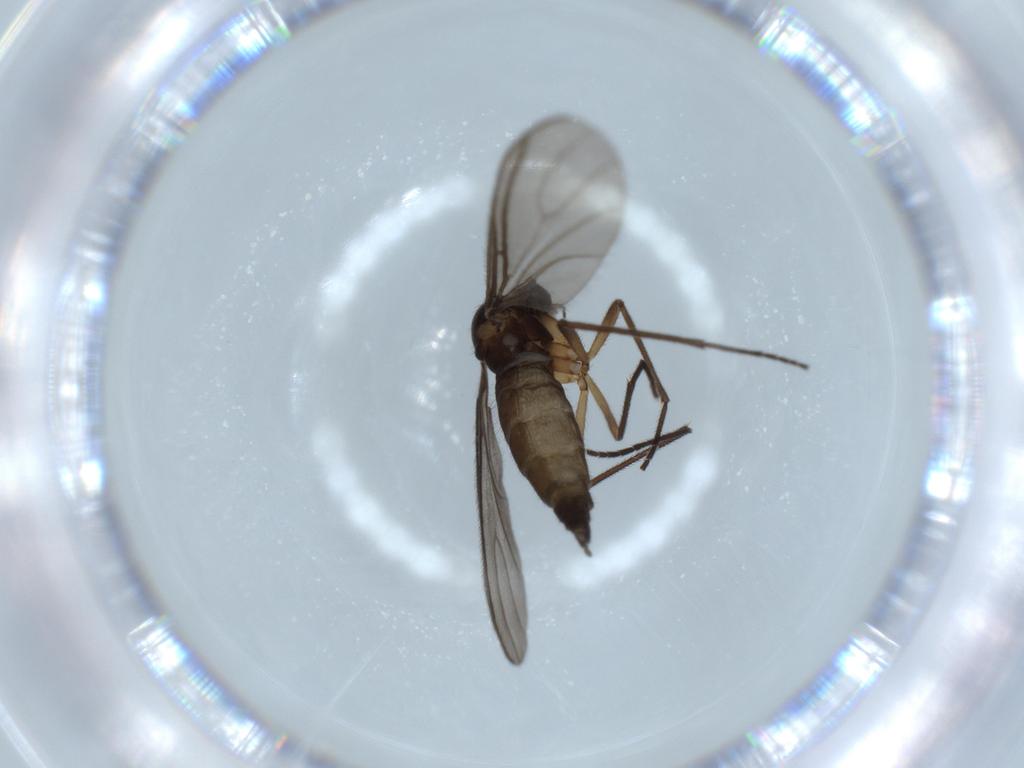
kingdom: Animalia
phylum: Arthropoda
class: Insecta
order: Diptera
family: Sciaridae
